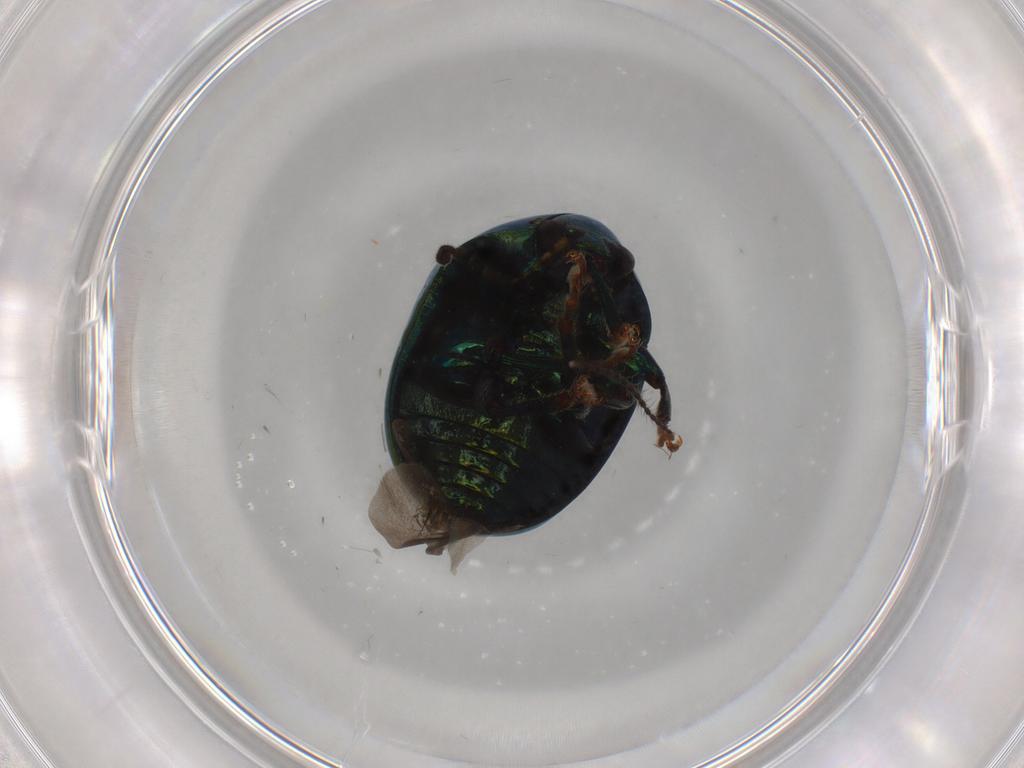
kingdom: Animalia
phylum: Arthropoda
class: Insecta
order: Coleoptera
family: Chrysomelidae
